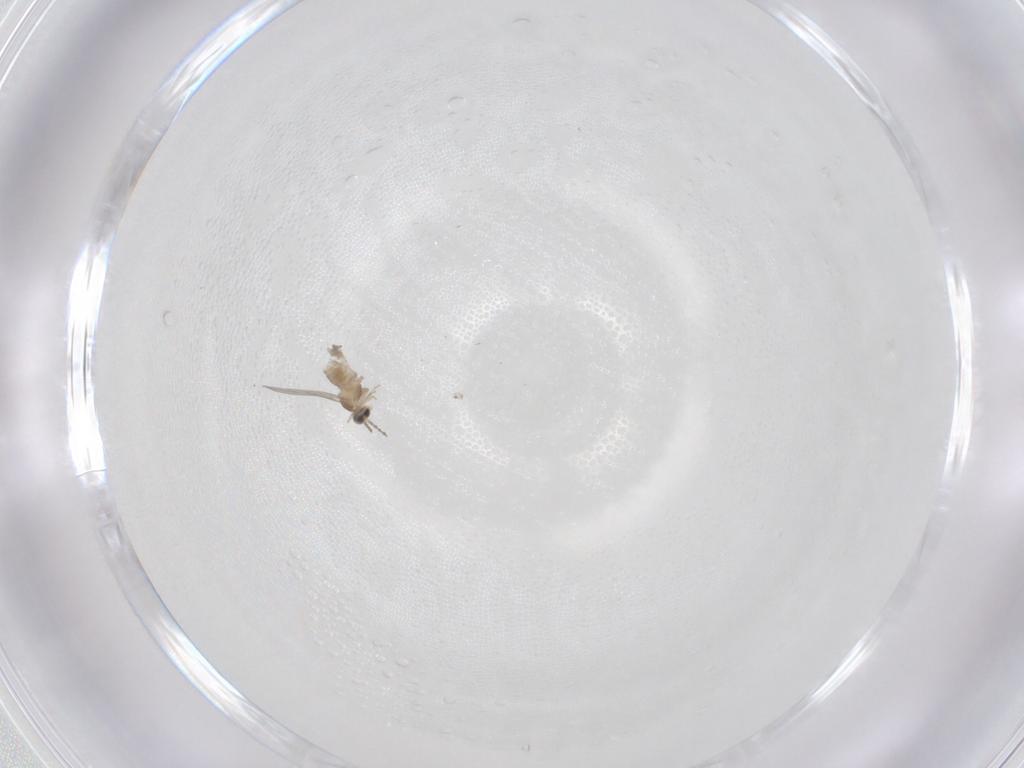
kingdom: Animalia
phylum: Arthropoda
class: Insecta
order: Diptera
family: Cecidomyiidae
